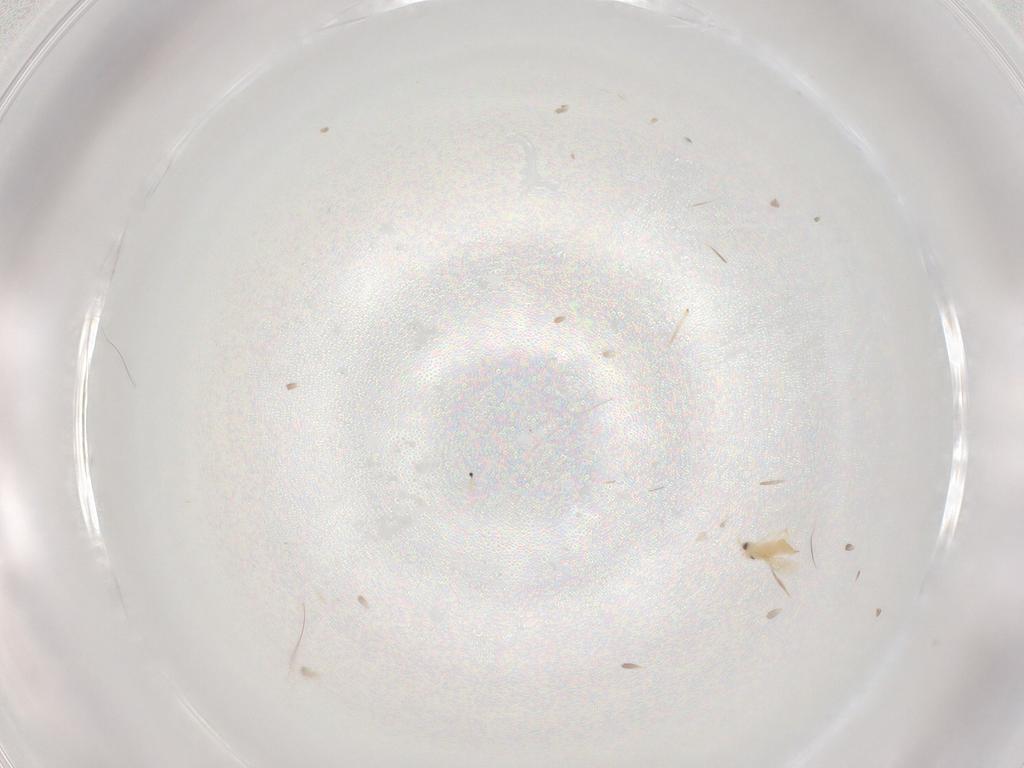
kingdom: Animalia
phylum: Arthropoda
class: Insecta
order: Hymenoptera
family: Aphelinidae
